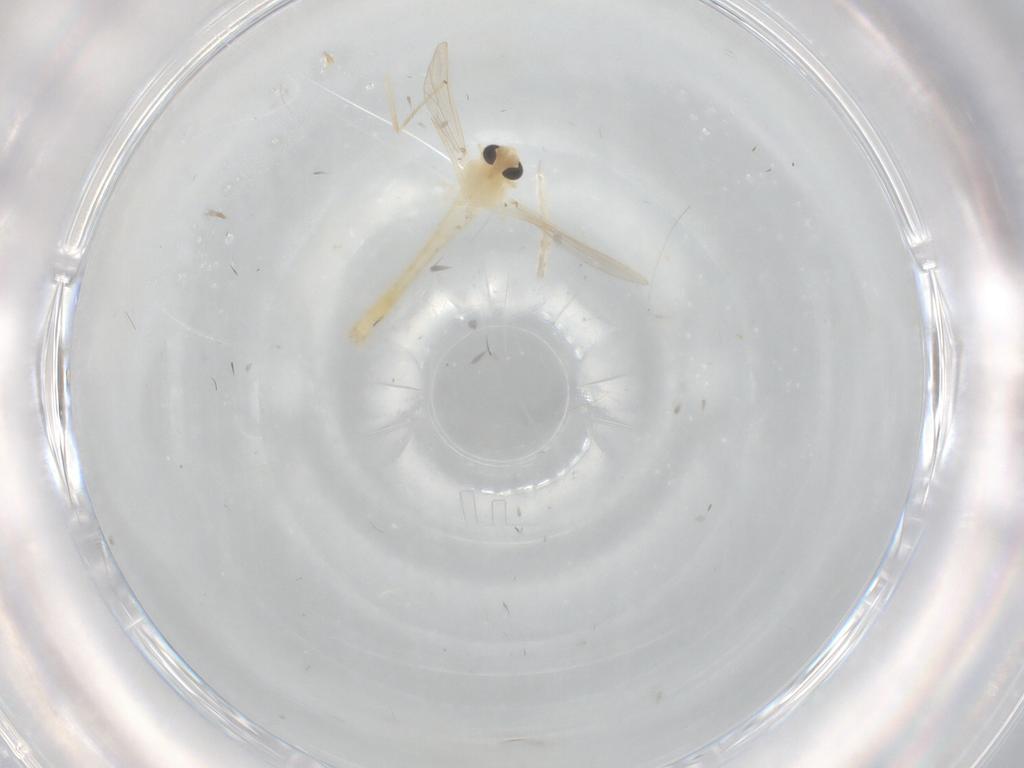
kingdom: Animalia
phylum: Arthropoda
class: Insecta
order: Diptera
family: Chironomidae
